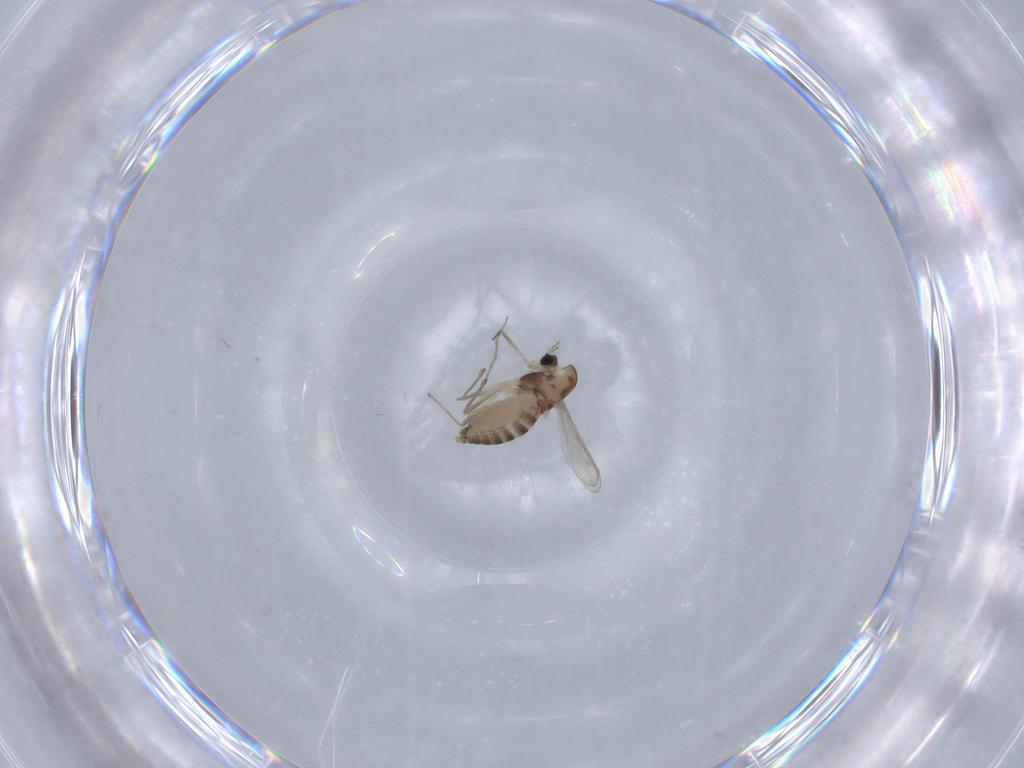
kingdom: Animalia
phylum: Arthropoda
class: Insecta
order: Diptera
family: Chironomidae
